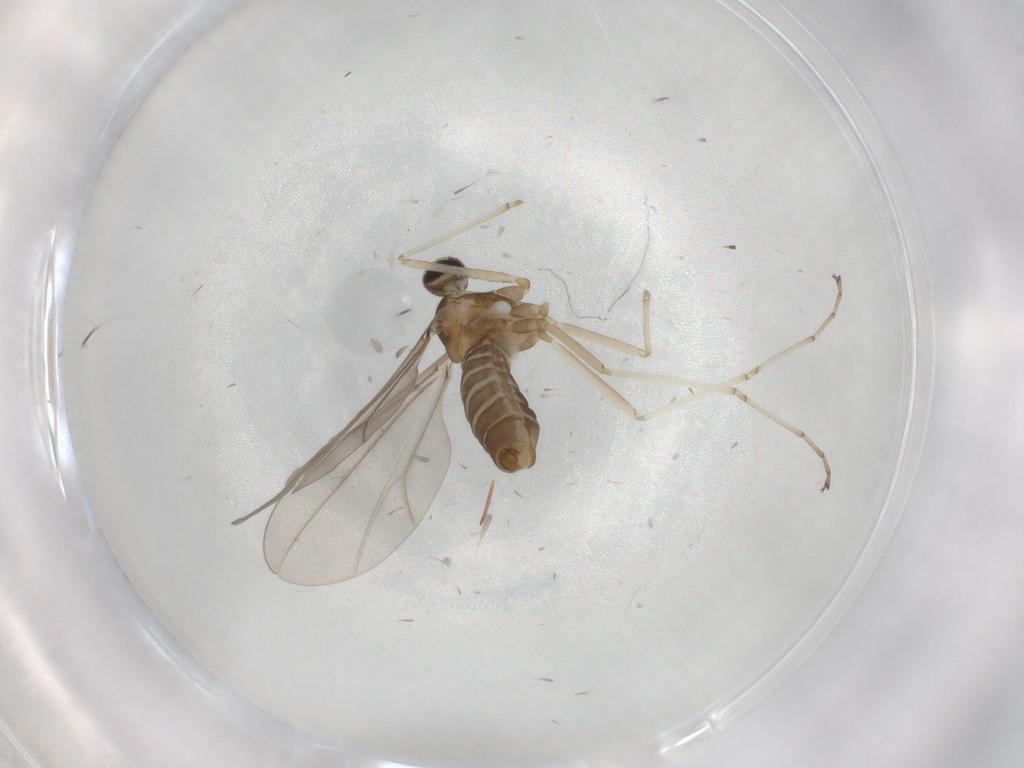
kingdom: Animalia
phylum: Arthropoda
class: Insecta
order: Diptera
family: Cecidomyiidae
